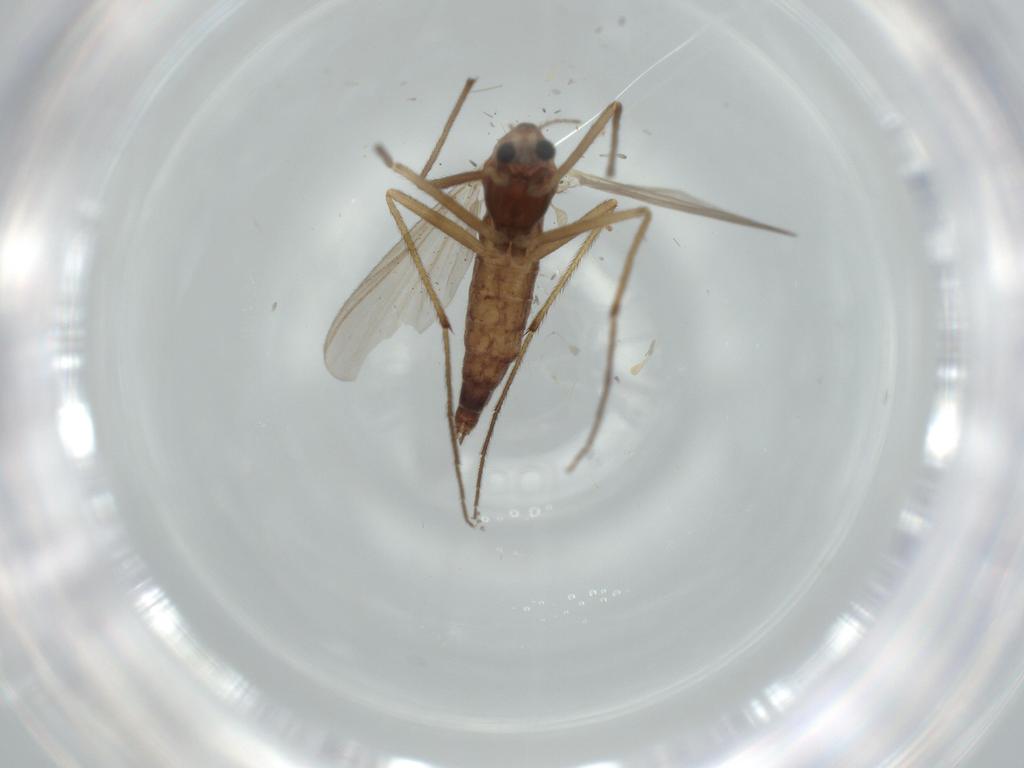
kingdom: Animalia
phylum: Arthropoda
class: Insecta
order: Diptera
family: Chironomidae
